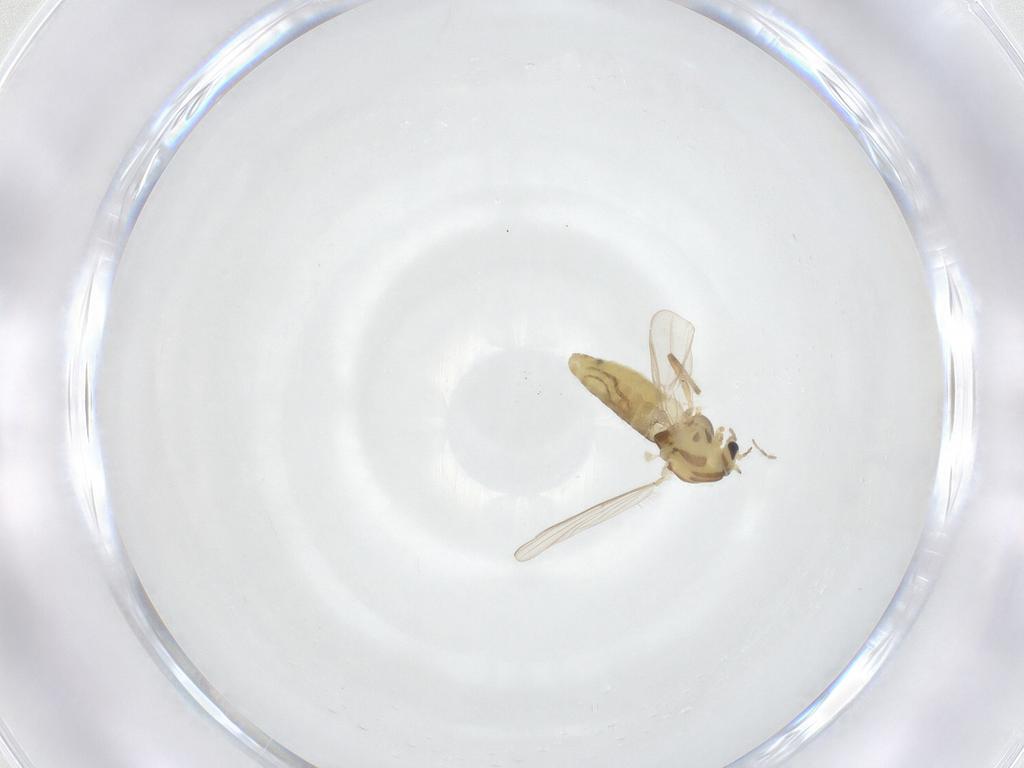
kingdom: Animalia
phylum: Arthropoda
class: Insecta
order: Diptera
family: Chironomidae
